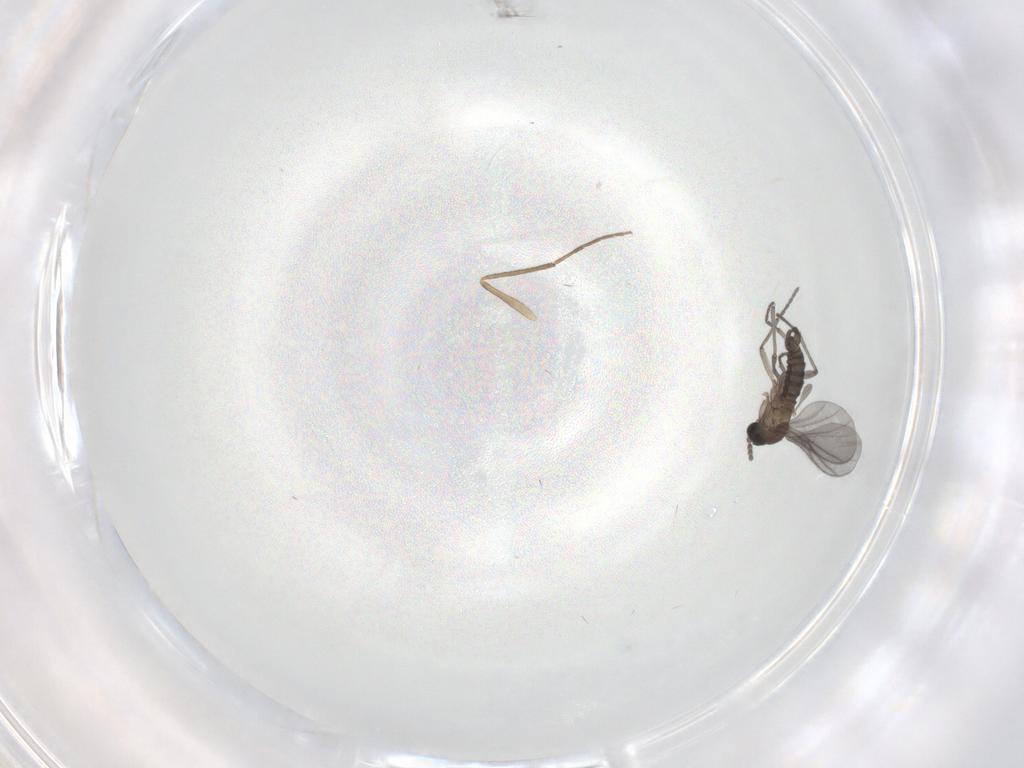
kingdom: Animalia
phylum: Arthropoda
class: Insecta
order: Diptera
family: Sciaridae
